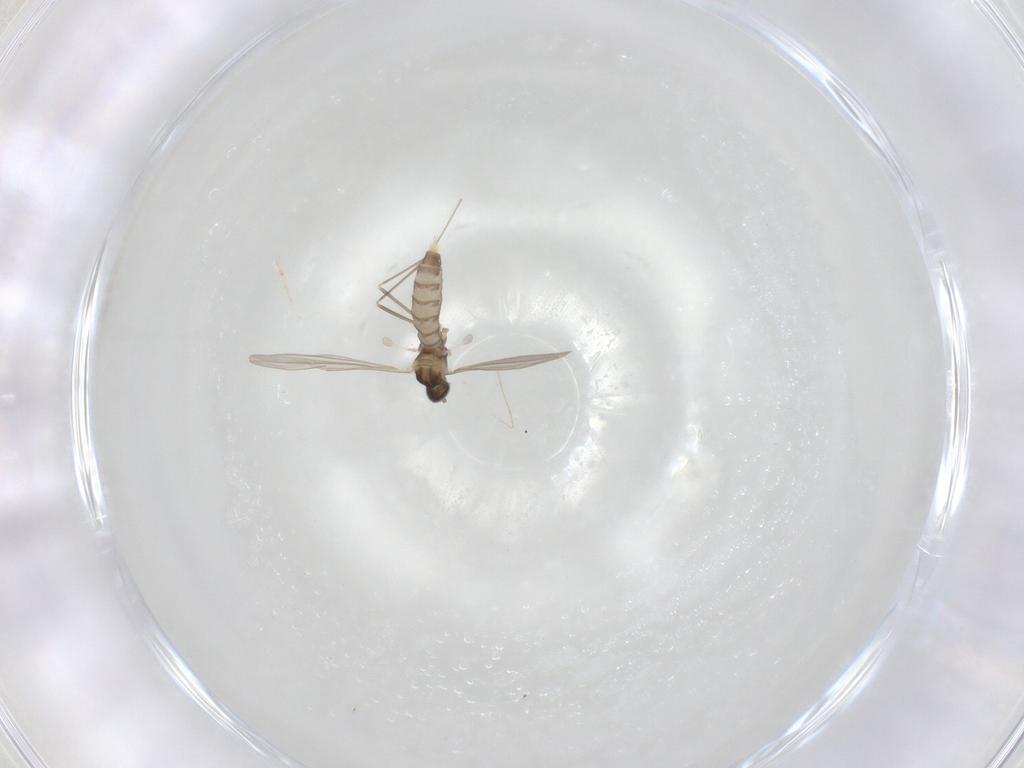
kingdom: Animalia
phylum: Arthropoda
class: Insecta
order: Diptera
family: Cecidomyiidae
